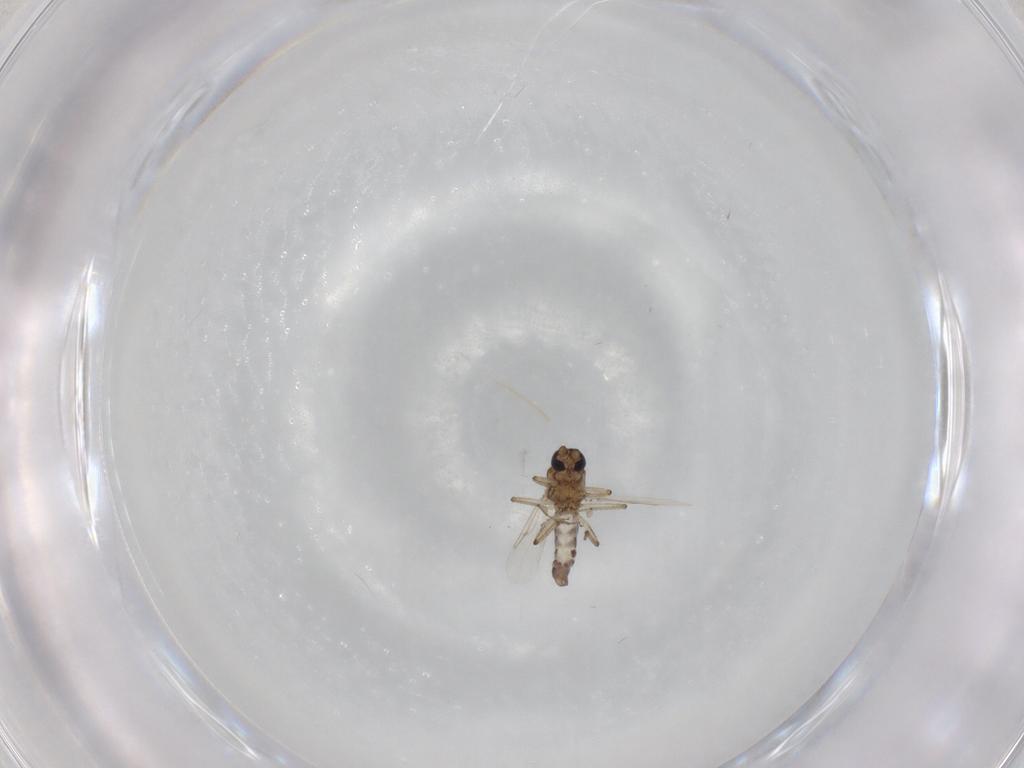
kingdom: Animalia
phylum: Arthropoda
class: Insecta
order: Diptera
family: Ceratopogonidae
